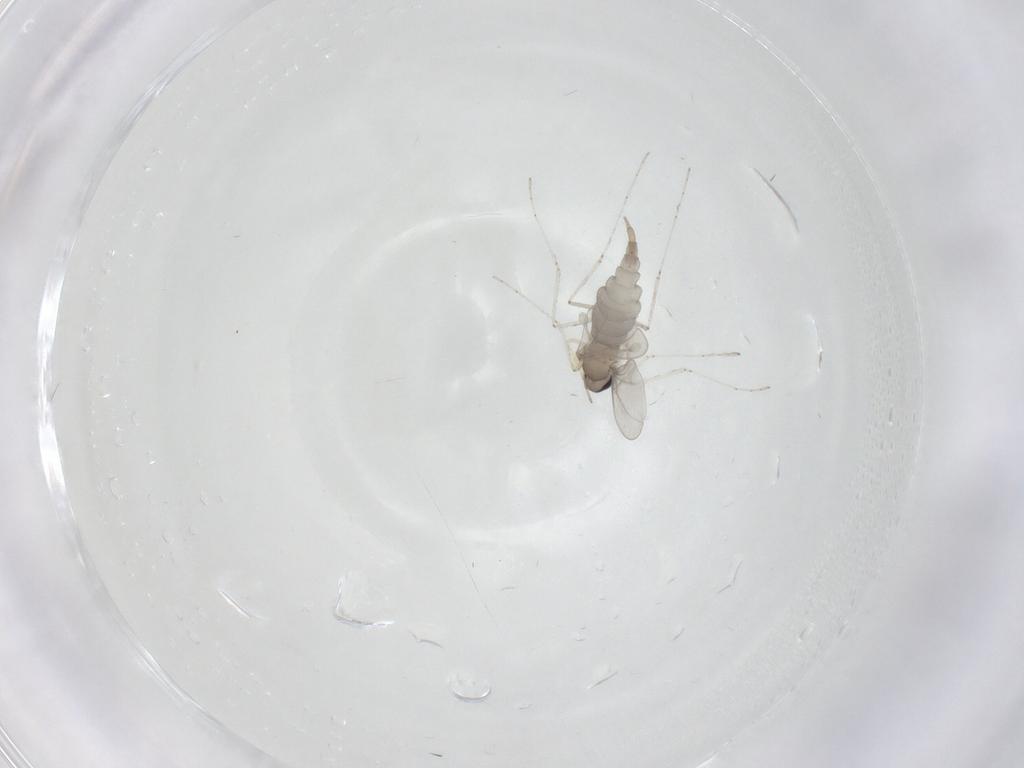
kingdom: Animalia
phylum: Arthropoda
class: Insecta
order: Diptera
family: Ceratopogonidae
